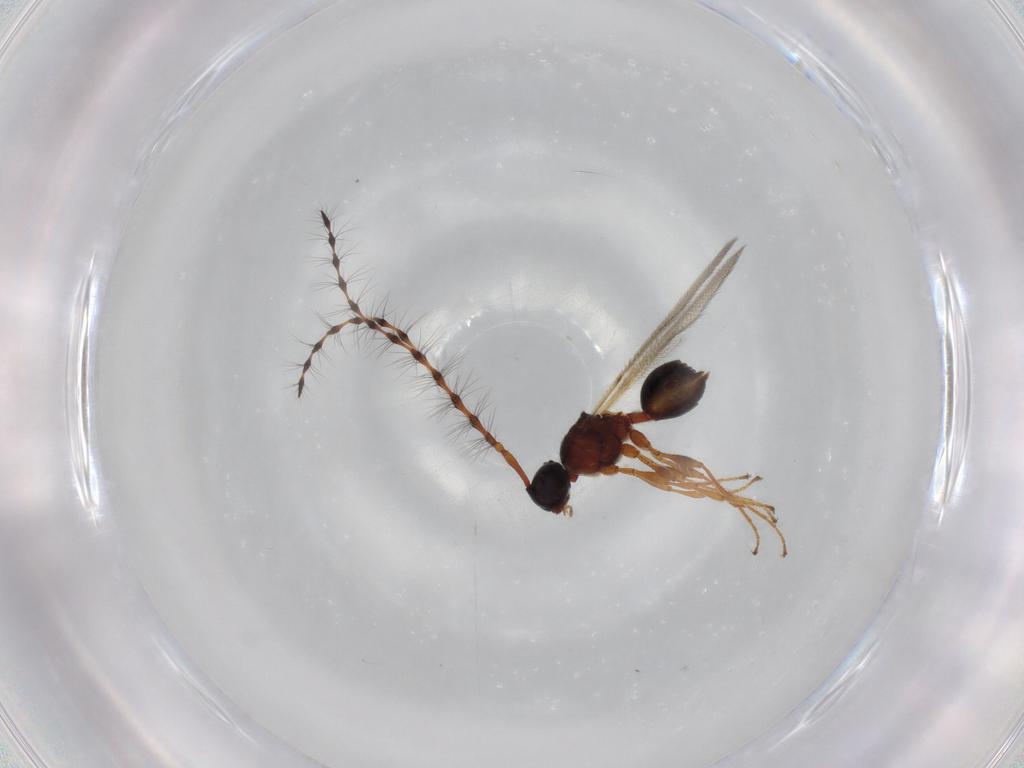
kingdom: Animalia
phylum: Arthropoda
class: Insecta
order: Hymenoptera
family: Diapriidae
